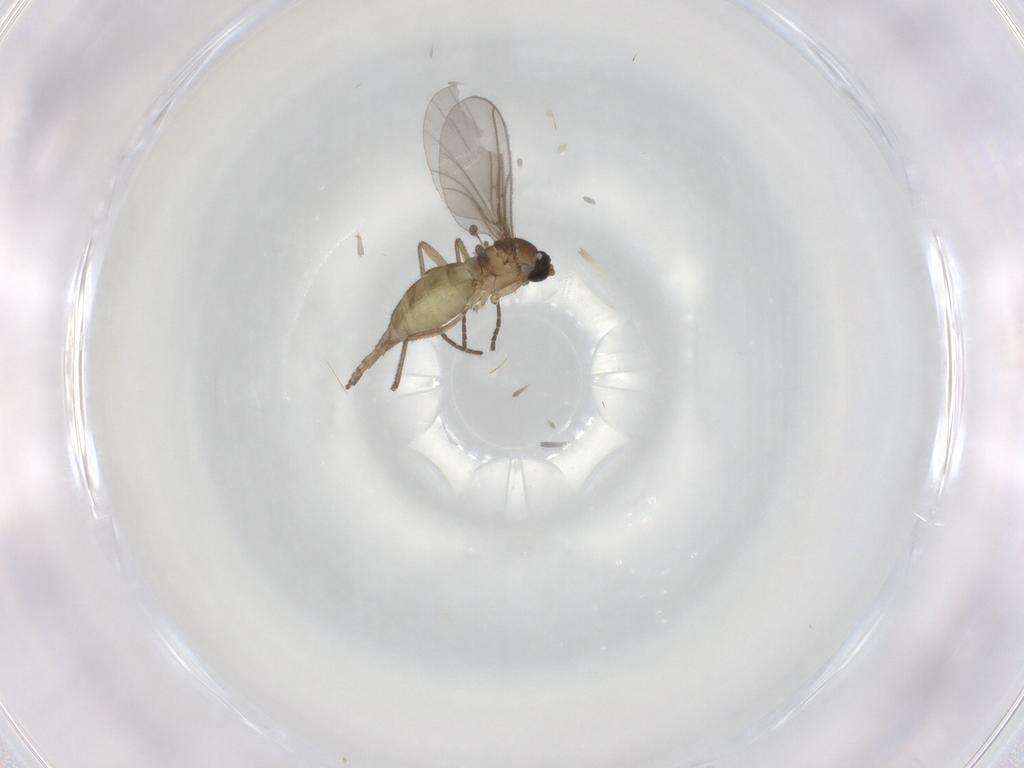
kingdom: Animalia
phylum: Arthropoda
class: Insecta
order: Diptera
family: Sciaridae
